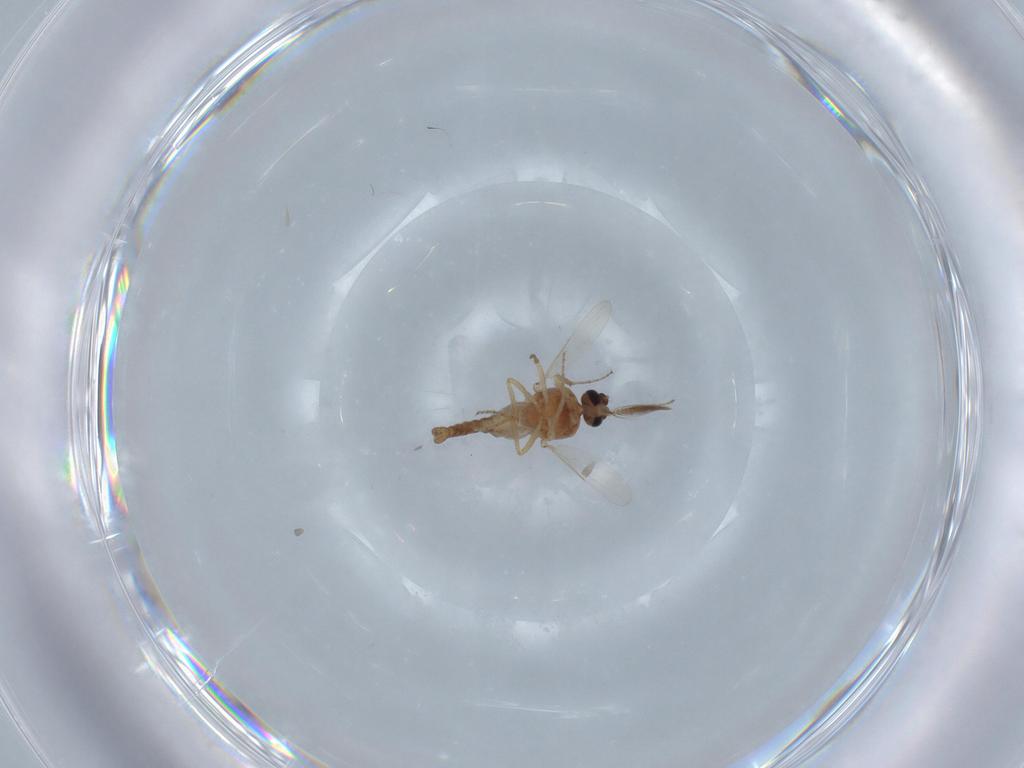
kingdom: Animalia
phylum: Arthropoda
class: Insecta
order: Diptera
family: Ceratopogonidae
